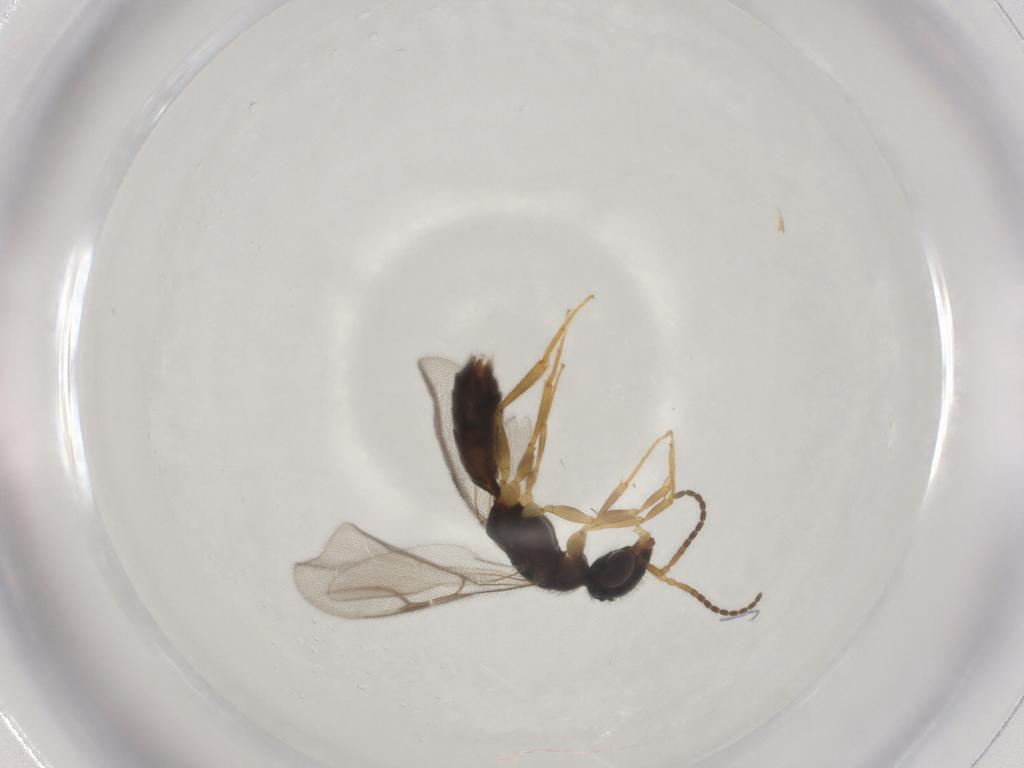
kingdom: Animalia
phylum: Arthropoda
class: Insecta
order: Hymenoptera
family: Bethylidae
